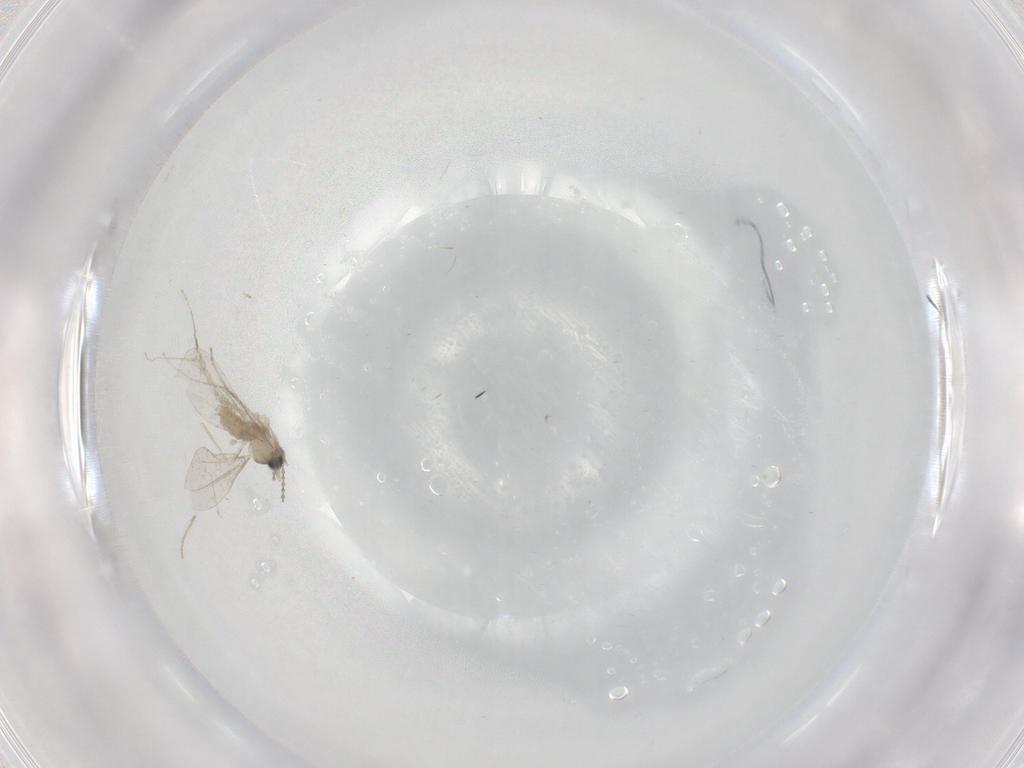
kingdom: Animalia
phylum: Arthropoda
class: Insecta
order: Diptera
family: Cecidomyiidae
